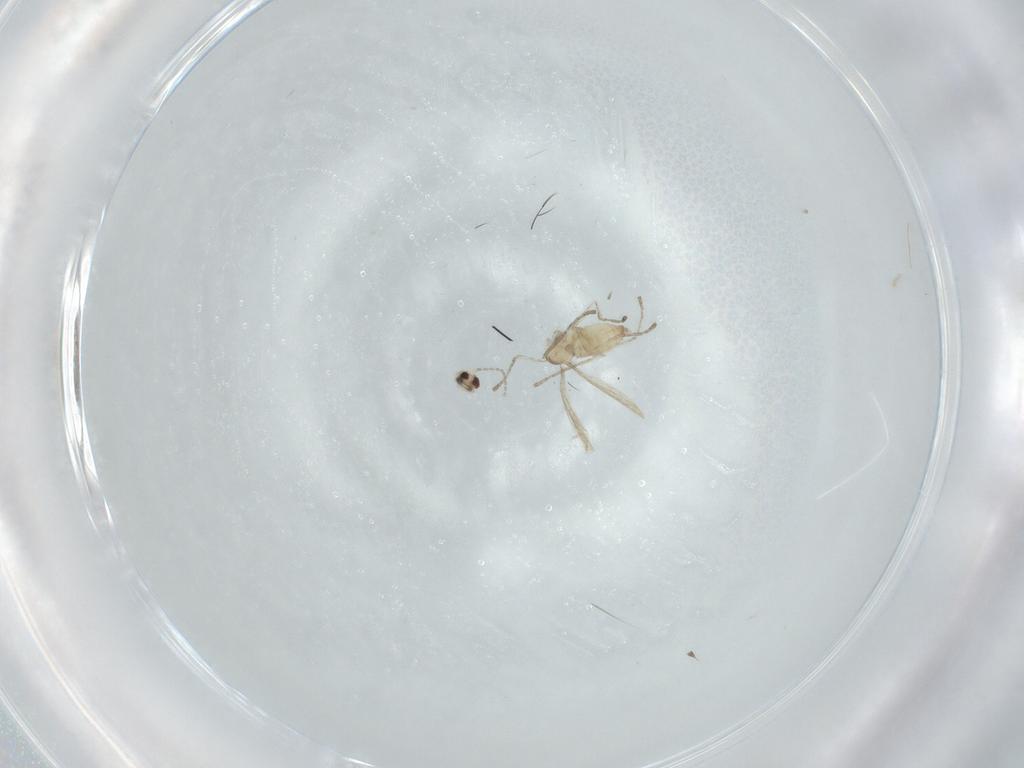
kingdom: Animalia
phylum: Arthropoda
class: Insecta
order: Diptera
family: Cecidomyiidae
